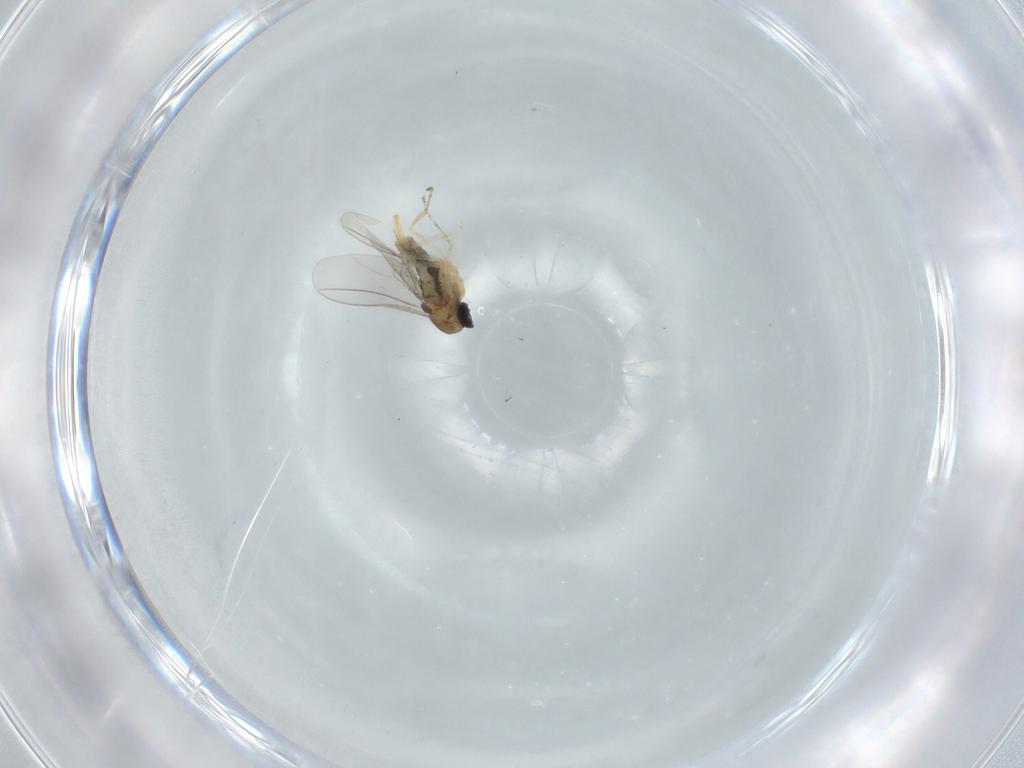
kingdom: Animalia
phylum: Arthropoda
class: Insecta
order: Diptera
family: Cecidomyiidae
